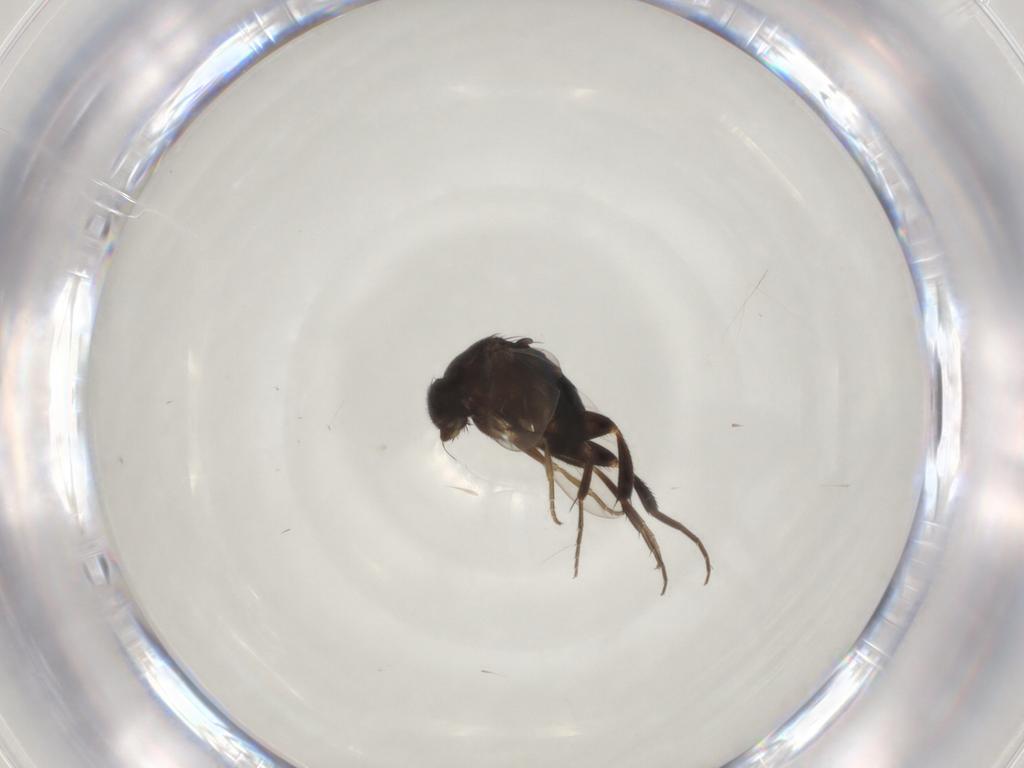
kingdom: Animalia
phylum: Arthropoda
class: Insecta
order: Diptera
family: Phoridae
